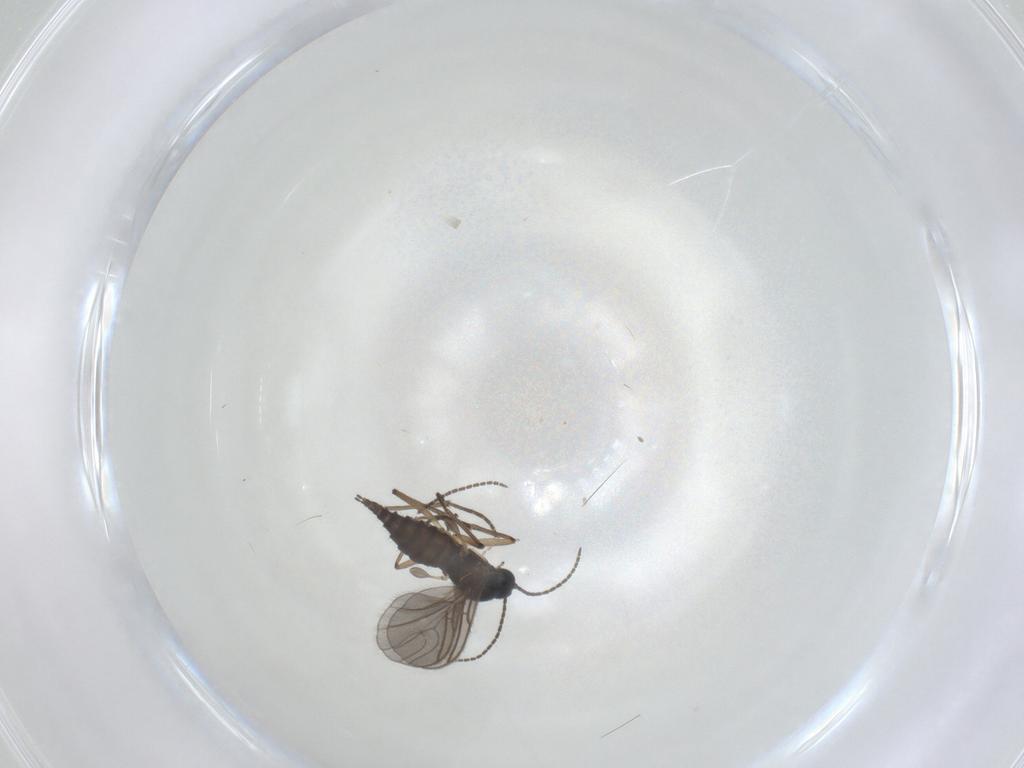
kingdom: Animalia
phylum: Arthropoda
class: Insecta
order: Diptera
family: Sciaridae
